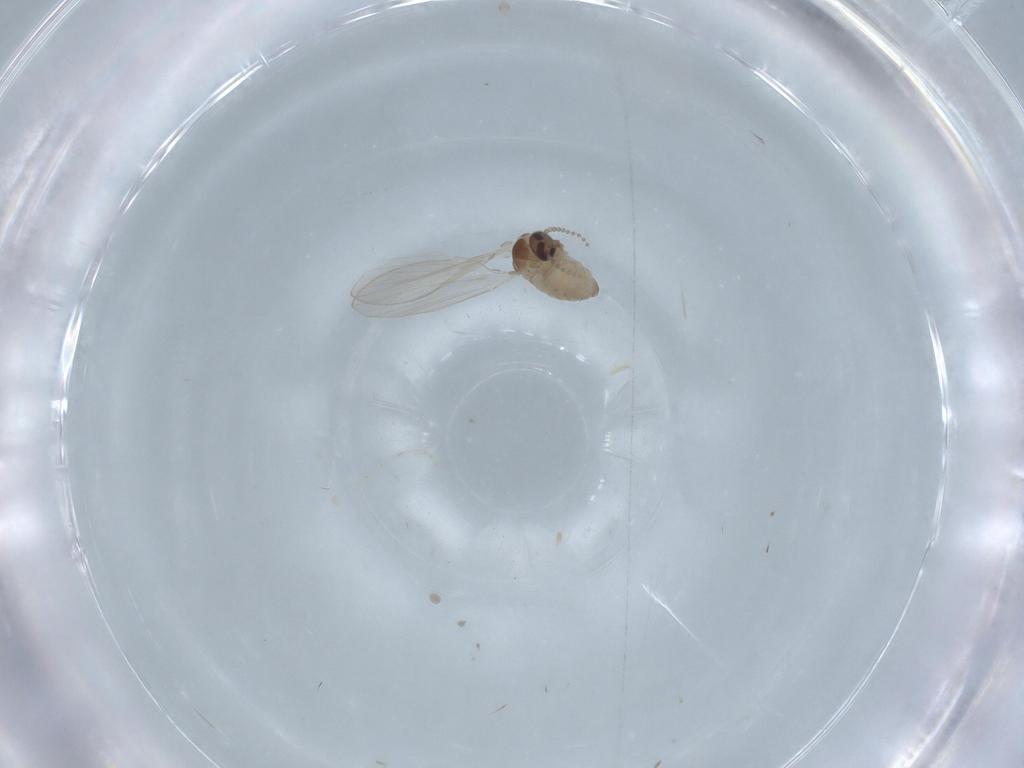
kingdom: Animalia
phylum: Arthropoda
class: Insecta
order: Diptera
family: Psychodidae
